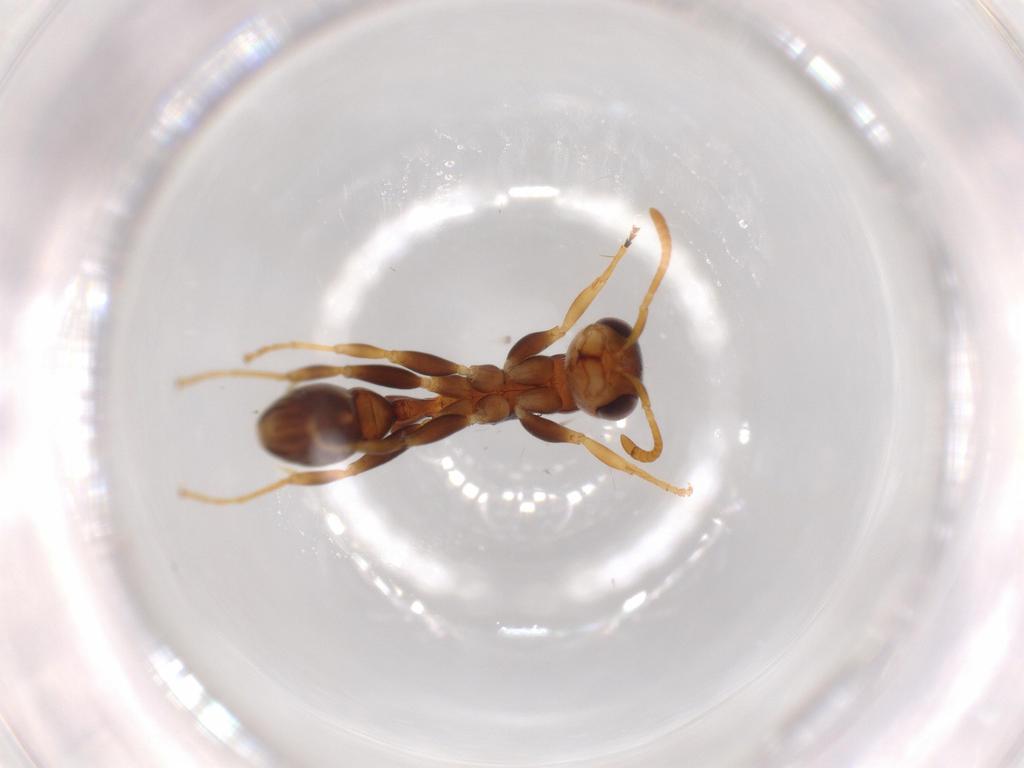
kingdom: Animalia
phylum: Arthropoda
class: Insecta
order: Hymenoptera
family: Formicidae
